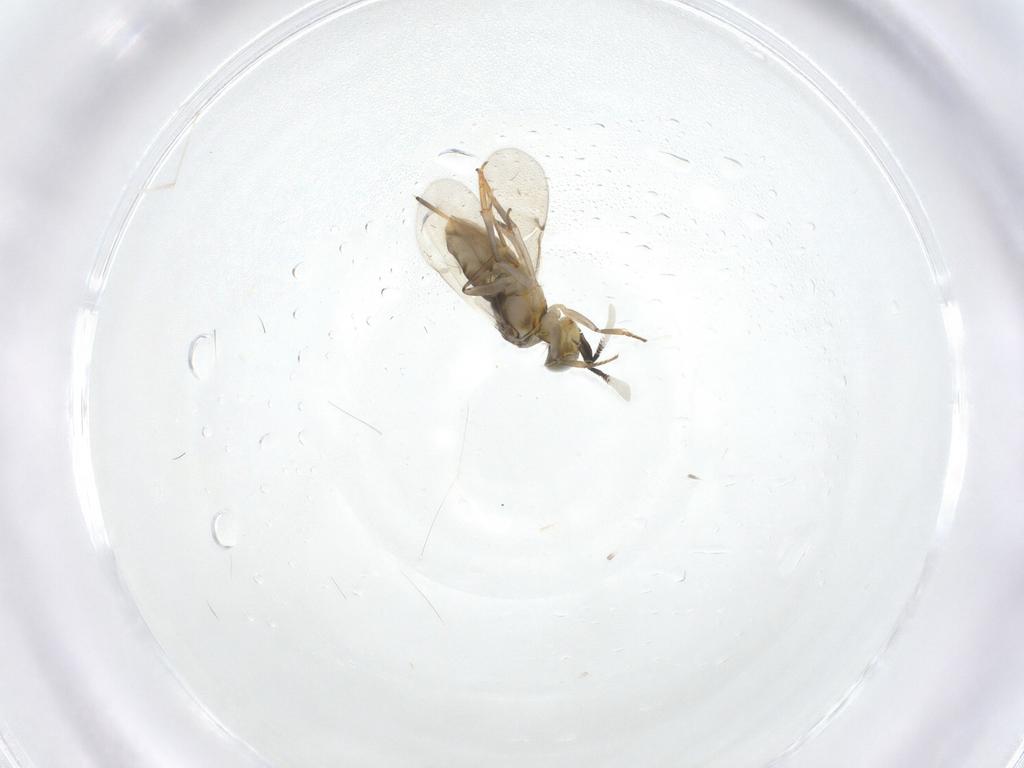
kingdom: Animalia
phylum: Arthropoda
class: Insecta
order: Hymenoptera
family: Encyrtidae
